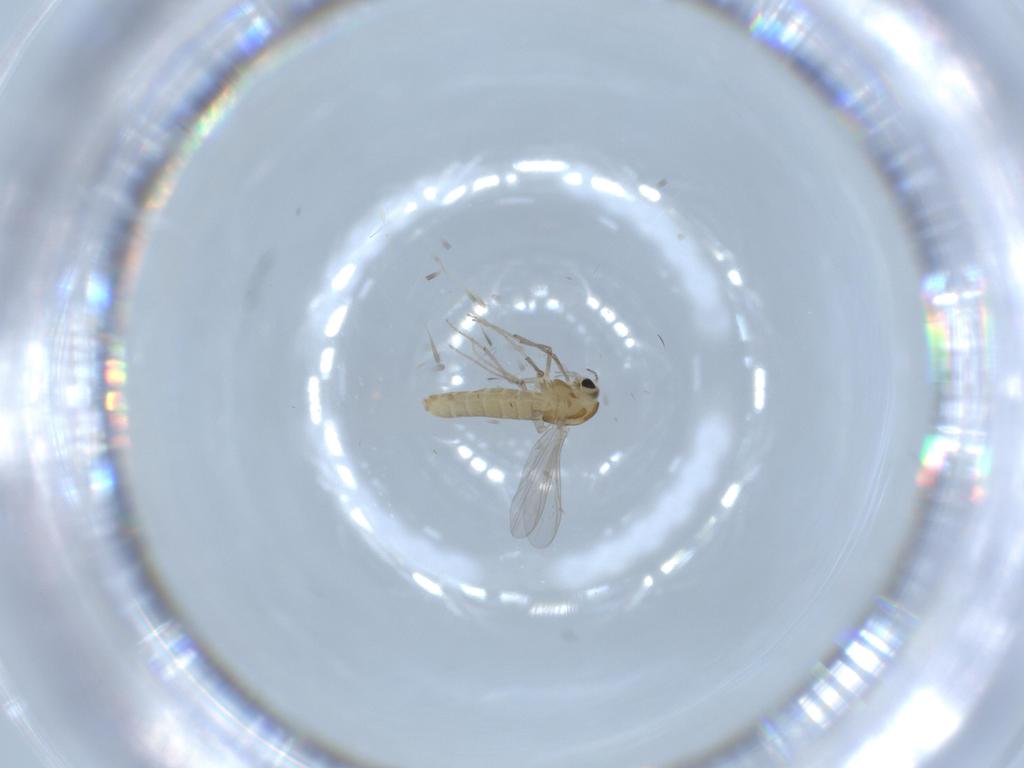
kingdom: Animalia
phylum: Arthropoda
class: Insecta
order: Diptera
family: Chironomidae
